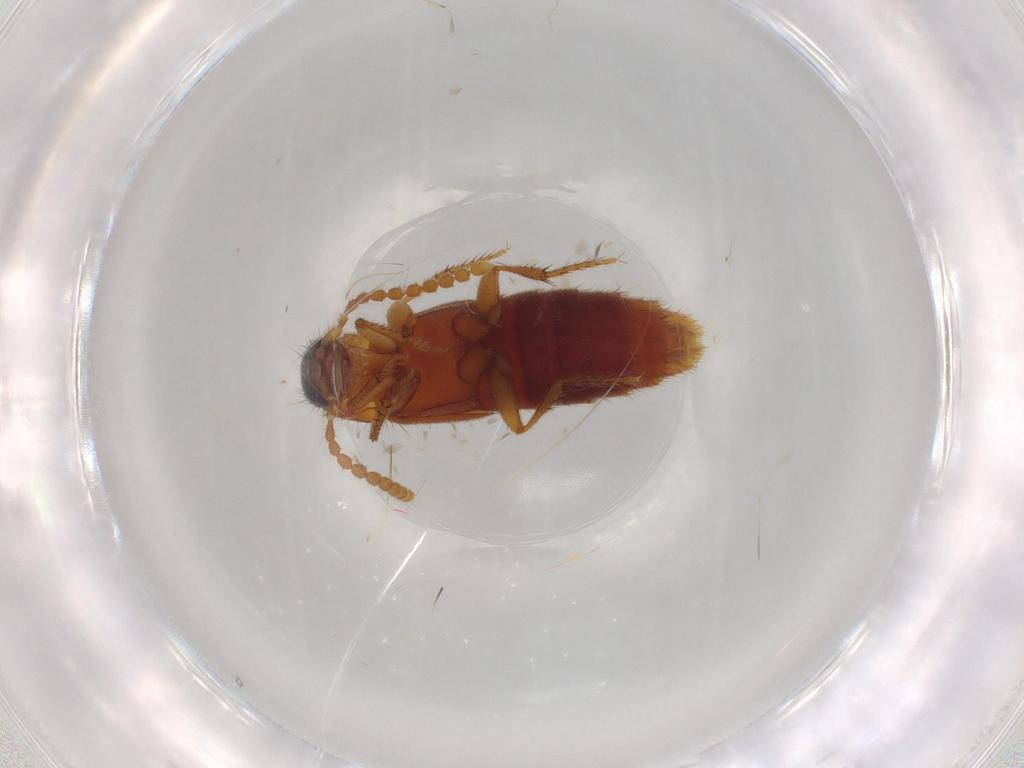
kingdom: Animalia
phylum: Arthropoda
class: Insecta
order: Coleoptera
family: Staphylinidae
